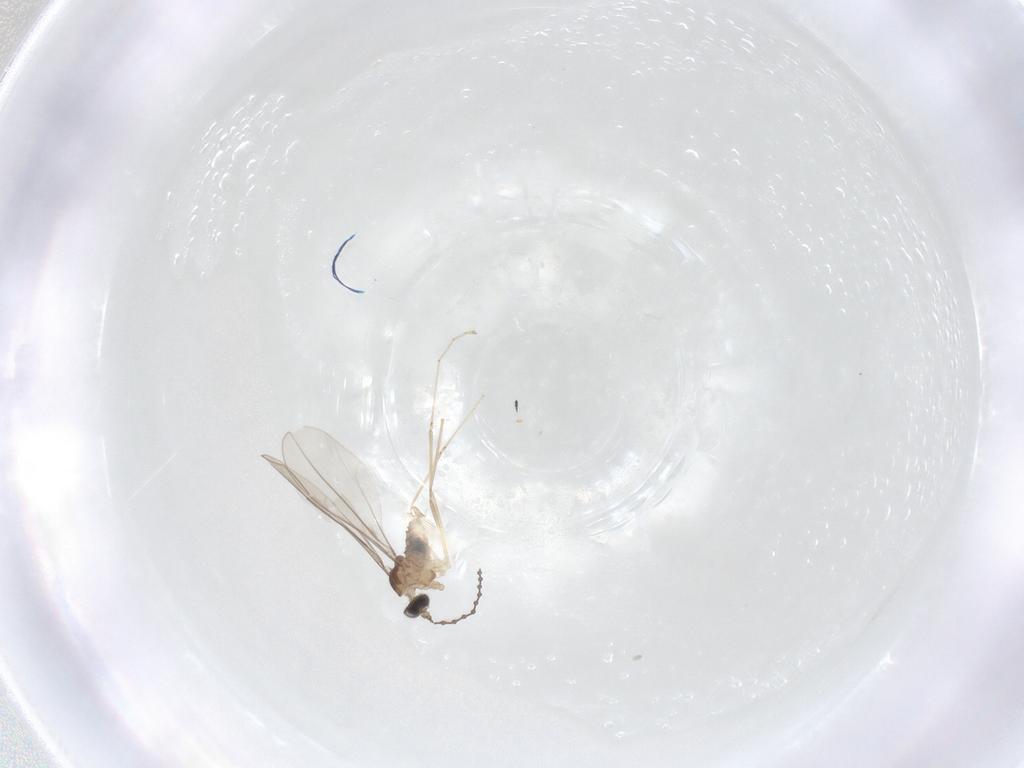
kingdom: Animalia
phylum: Arthropoda
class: Insecta
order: Diptera
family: Cecidomyiidae
